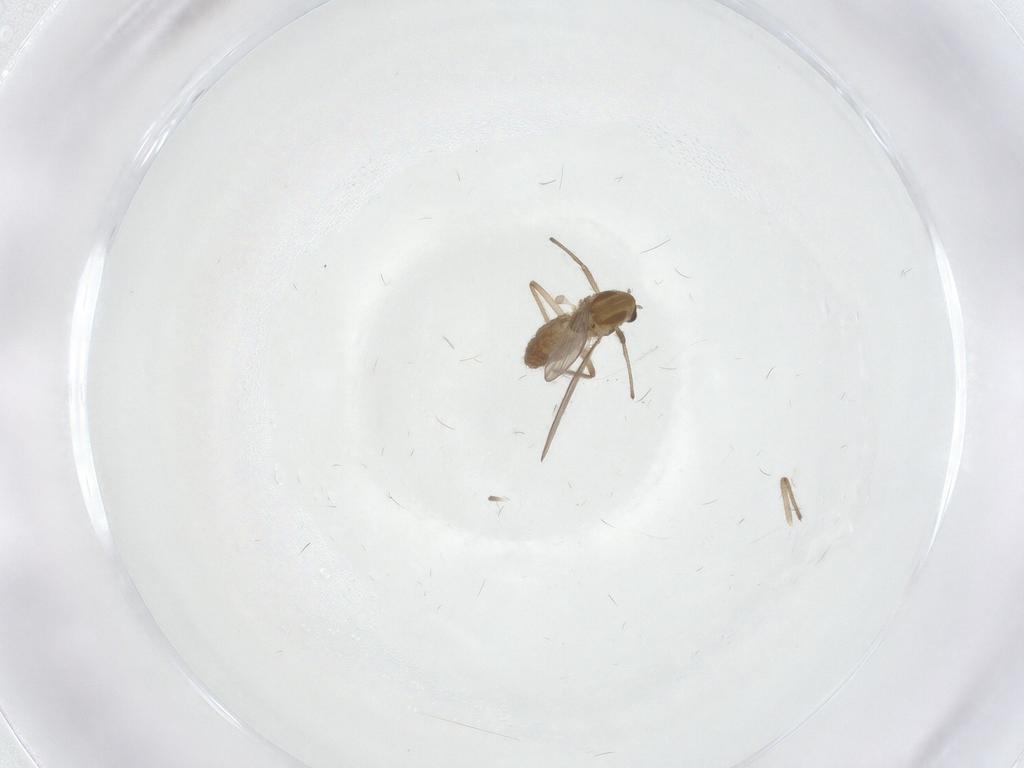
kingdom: Animalia
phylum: Arthropoda
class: Insecta
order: Diptera
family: Chironomidae
